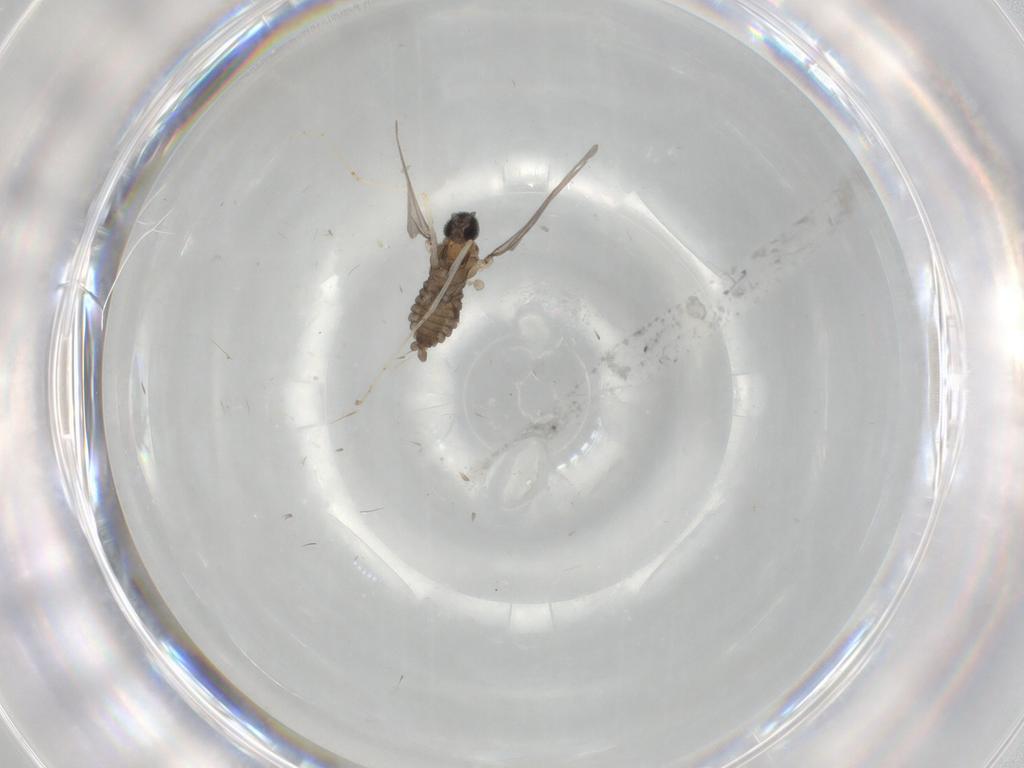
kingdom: Animalia
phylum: Arthropoda
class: Insecta
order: Diptera
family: Cecidomyiidae
